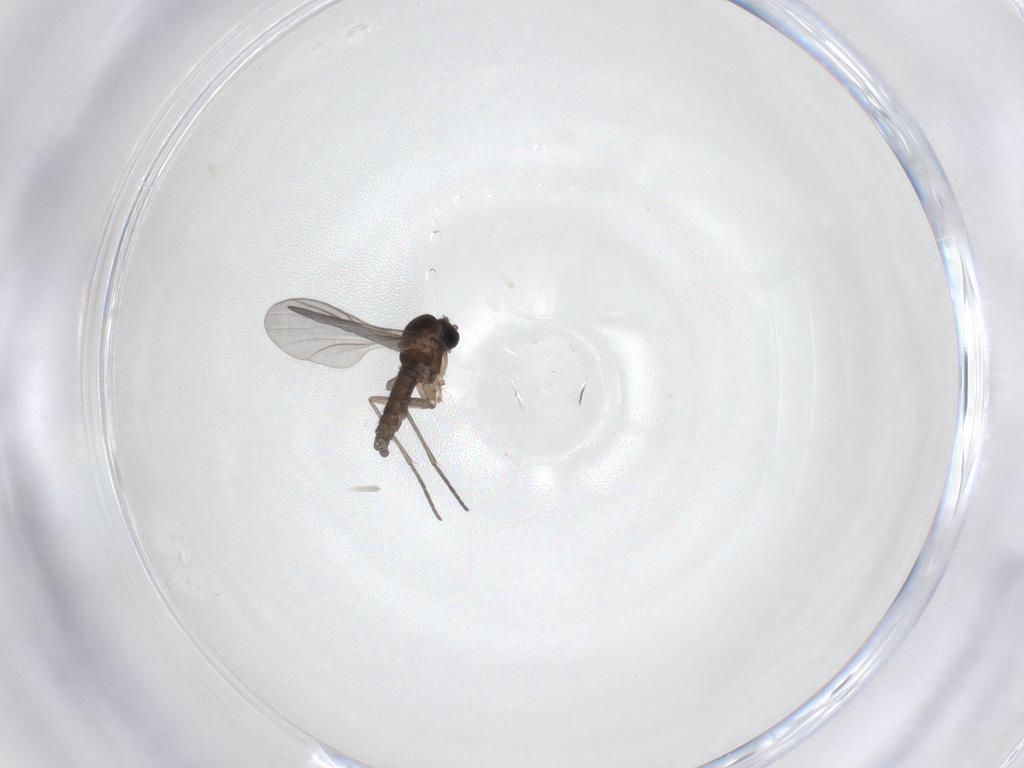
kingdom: Animalia
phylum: Arthropoda
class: Insecta
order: Diptera
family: Sciaridae
